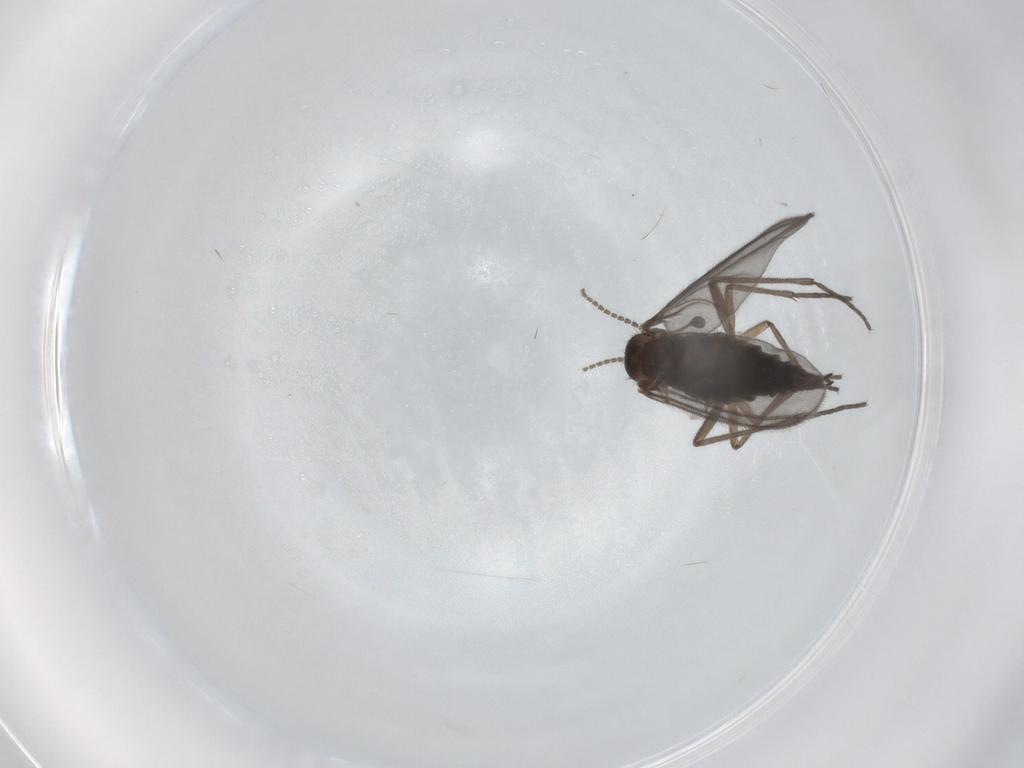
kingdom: Animalia
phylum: Arthropoda
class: Insecta
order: Diptera
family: Cecidomyiidae
